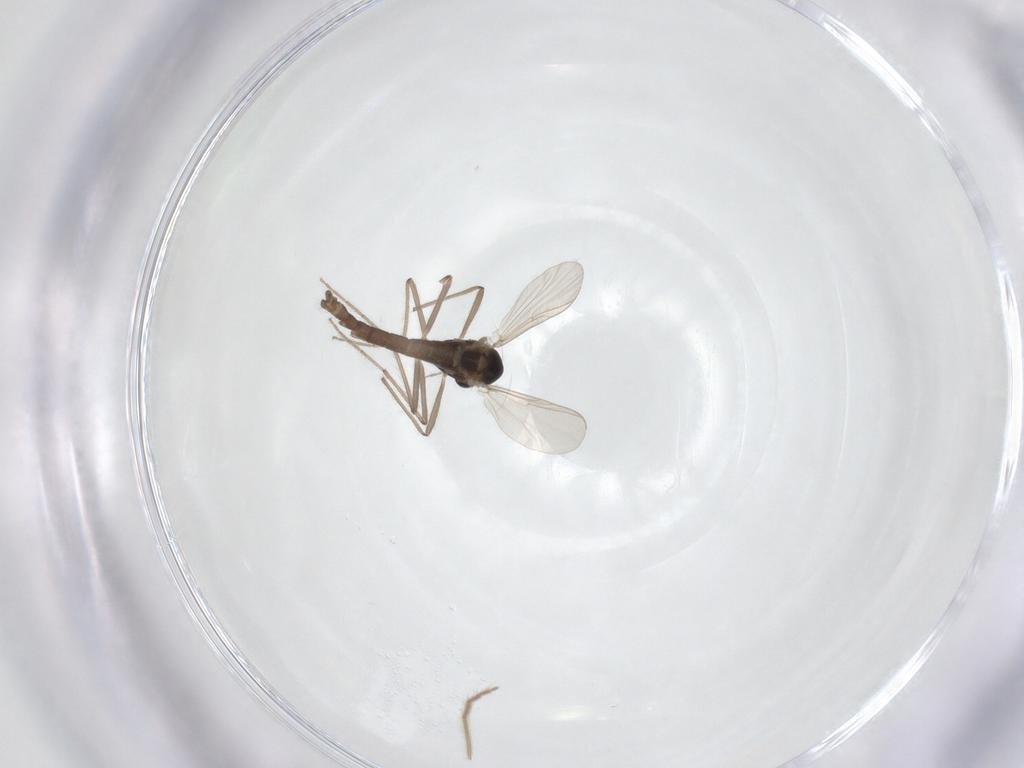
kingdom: Animalia
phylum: Arthropoda
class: Insecta
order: Diptera
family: Chironomidae
